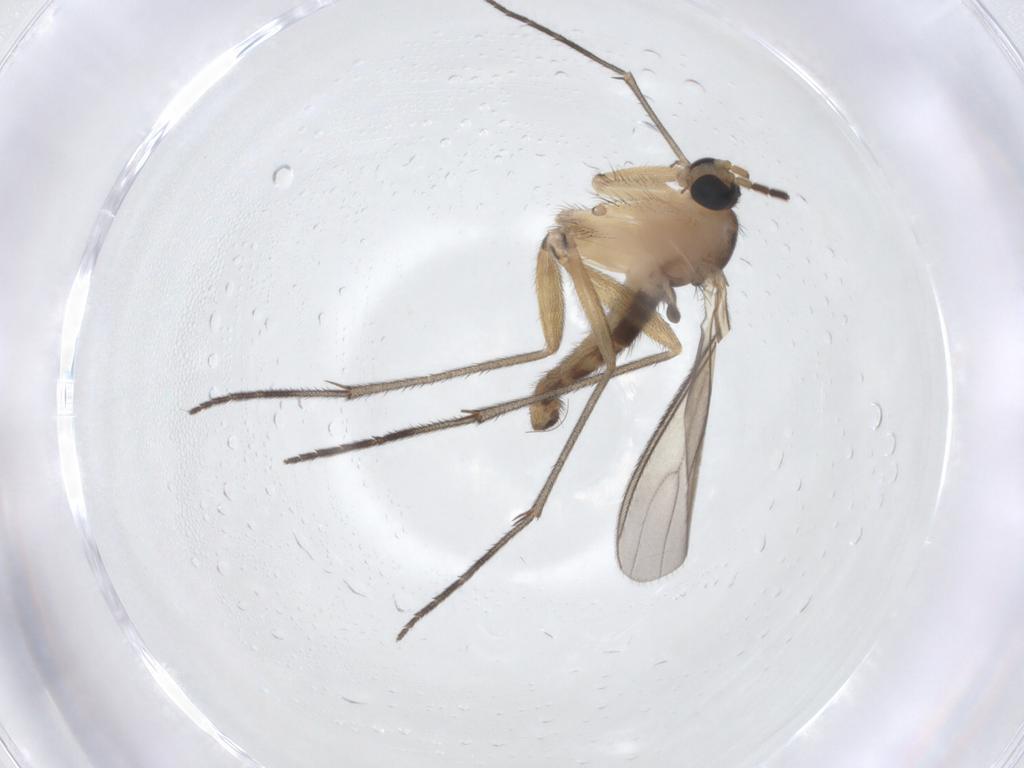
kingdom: Animalia
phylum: Arthropoda
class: Insecta
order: Diptera
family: Sciaridae
